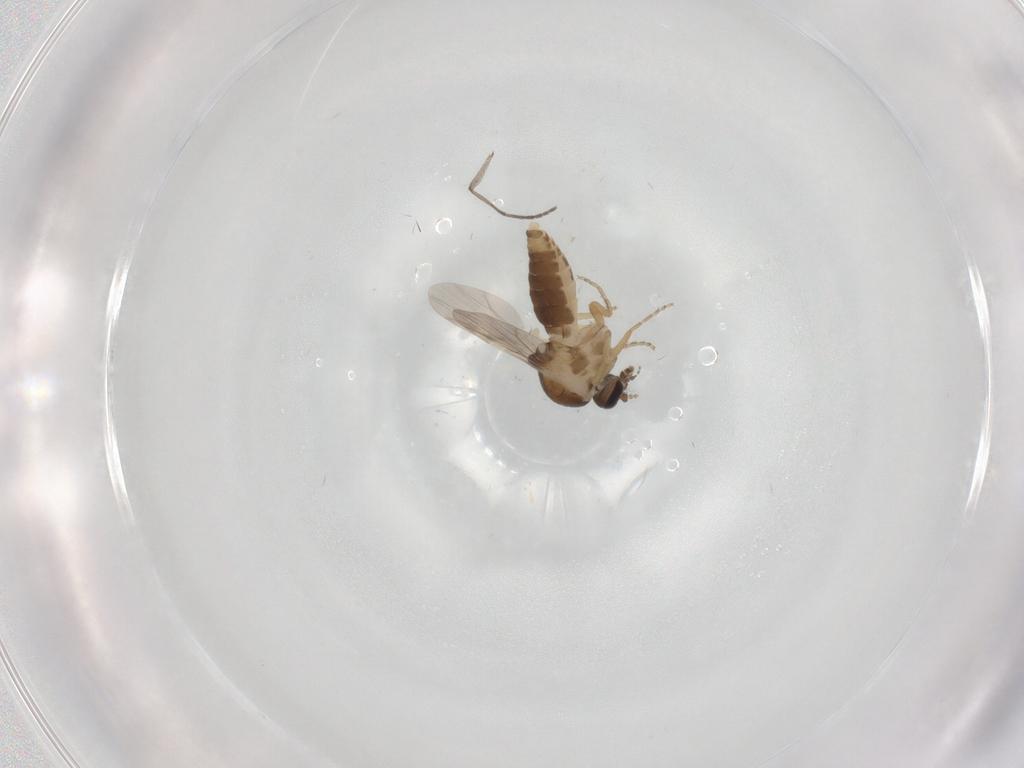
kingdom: Animalia
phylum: Arthropoda
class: Insecta
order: Diptera
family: Ceratopogonidae
